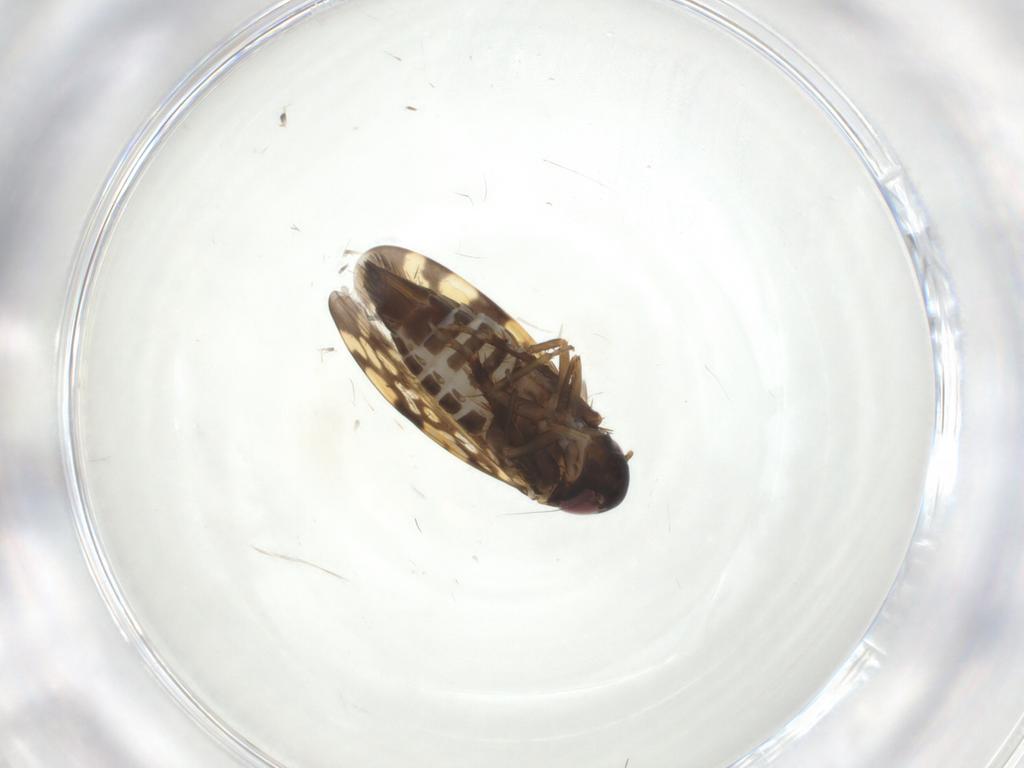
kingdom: Animalia
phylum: Arthropoda
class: Insecta
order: Hemiptera
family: Cicadellidae
